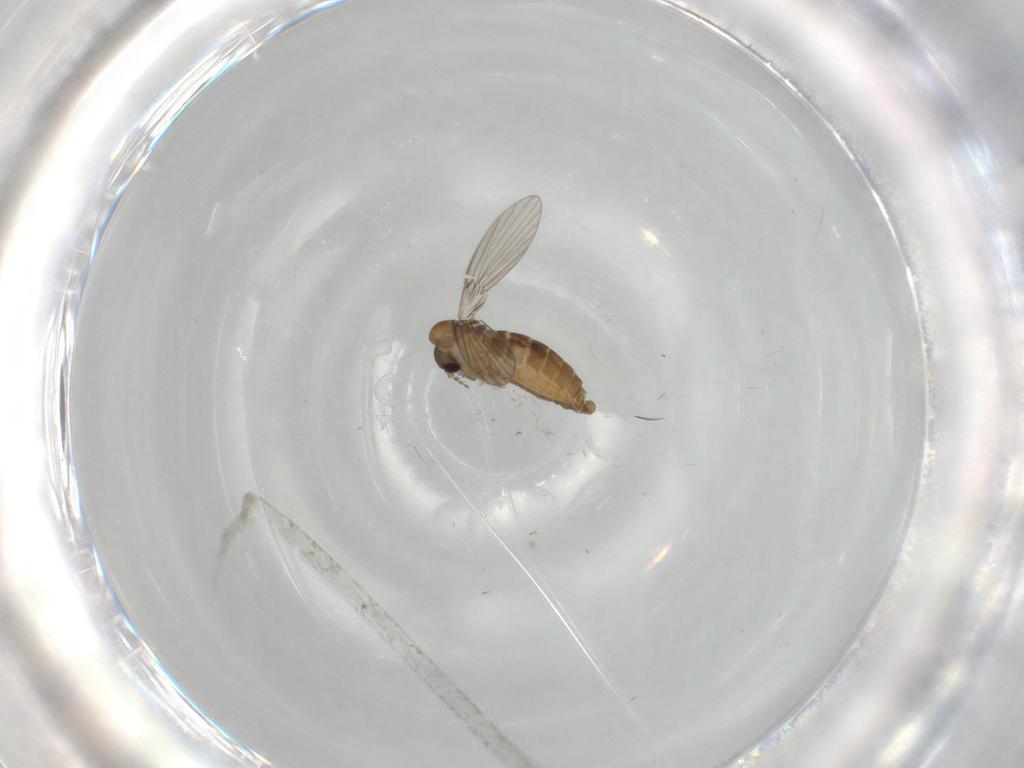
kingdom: Animalia
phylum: Arthropoda
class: Insecta
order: Diptera
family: Psychodidae
